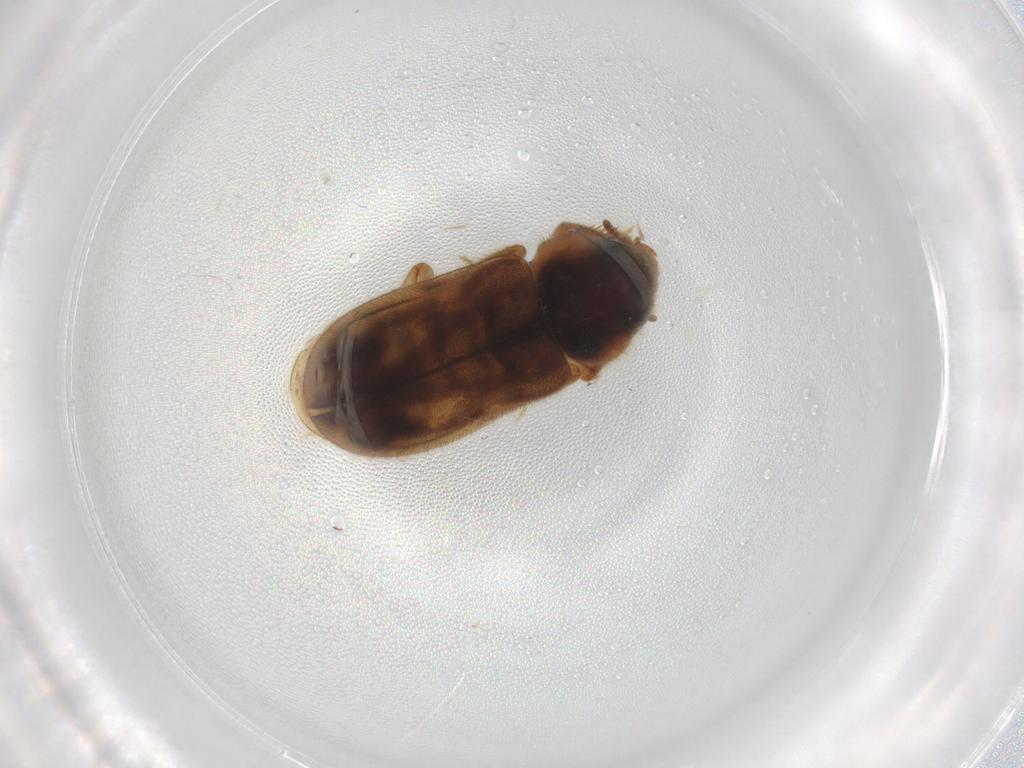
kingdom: Animalia
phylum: Arthropoda
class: Insecta
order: Coleoptera
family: Heteroceridae
